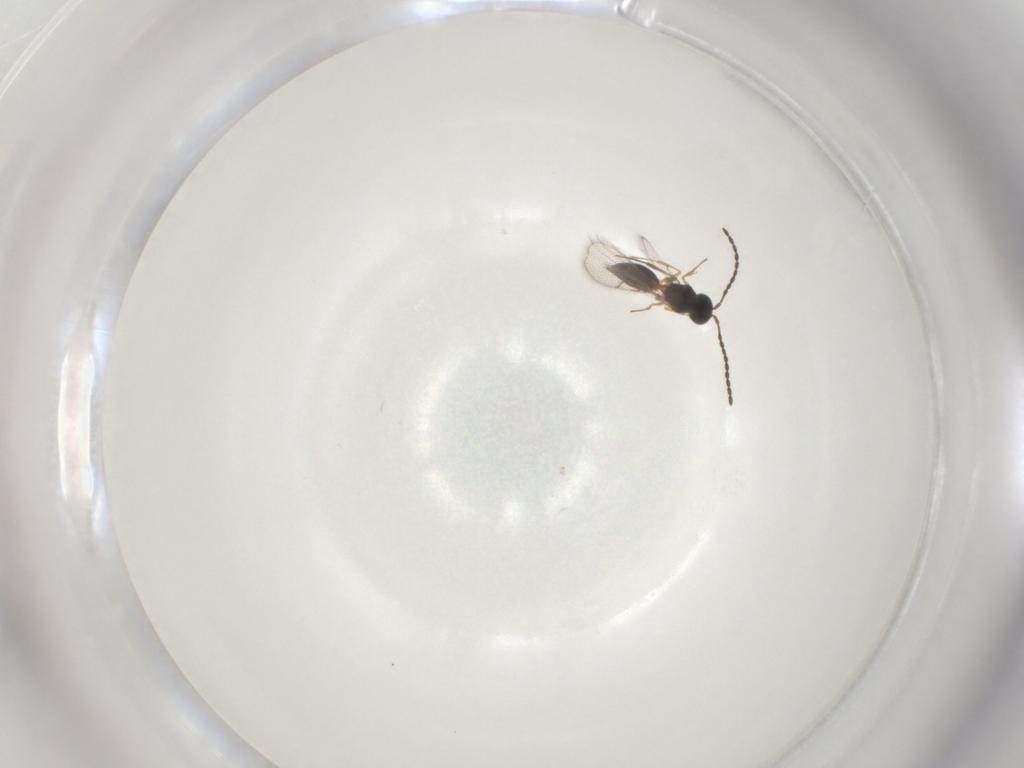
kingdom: Animalia
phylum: Arthropoda
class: Insecta
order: Hymenoptera
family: Figitidae
